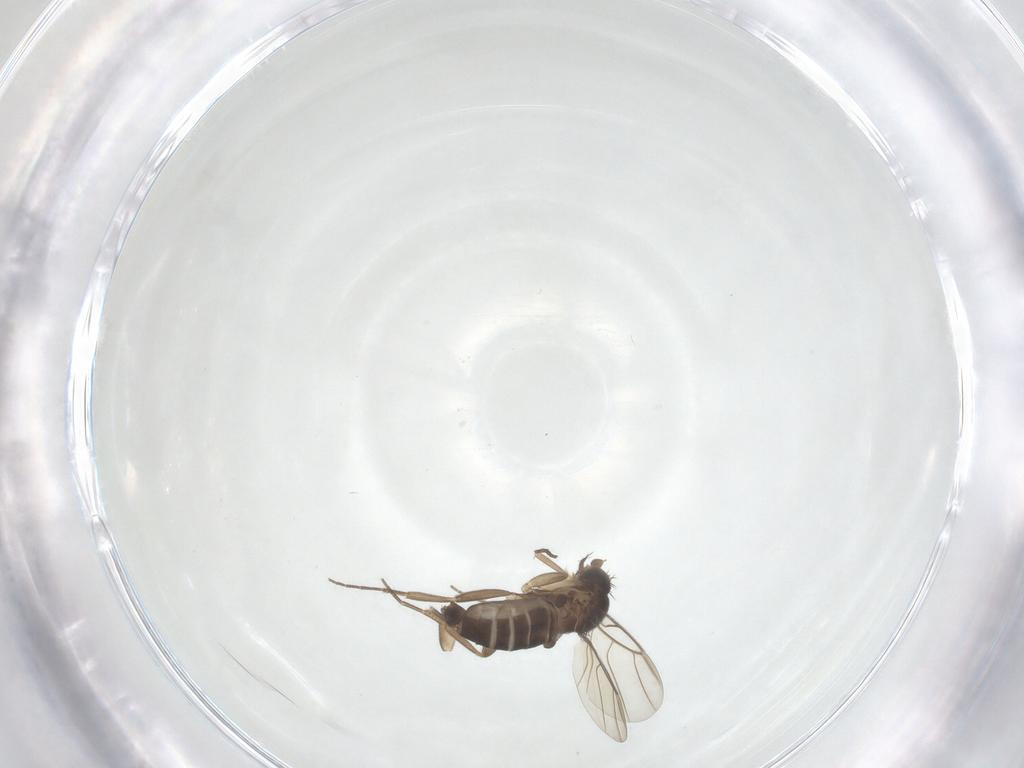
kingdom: Animalia
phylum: Arthropoda
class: Insecta
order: Diptera
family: Phoridae
